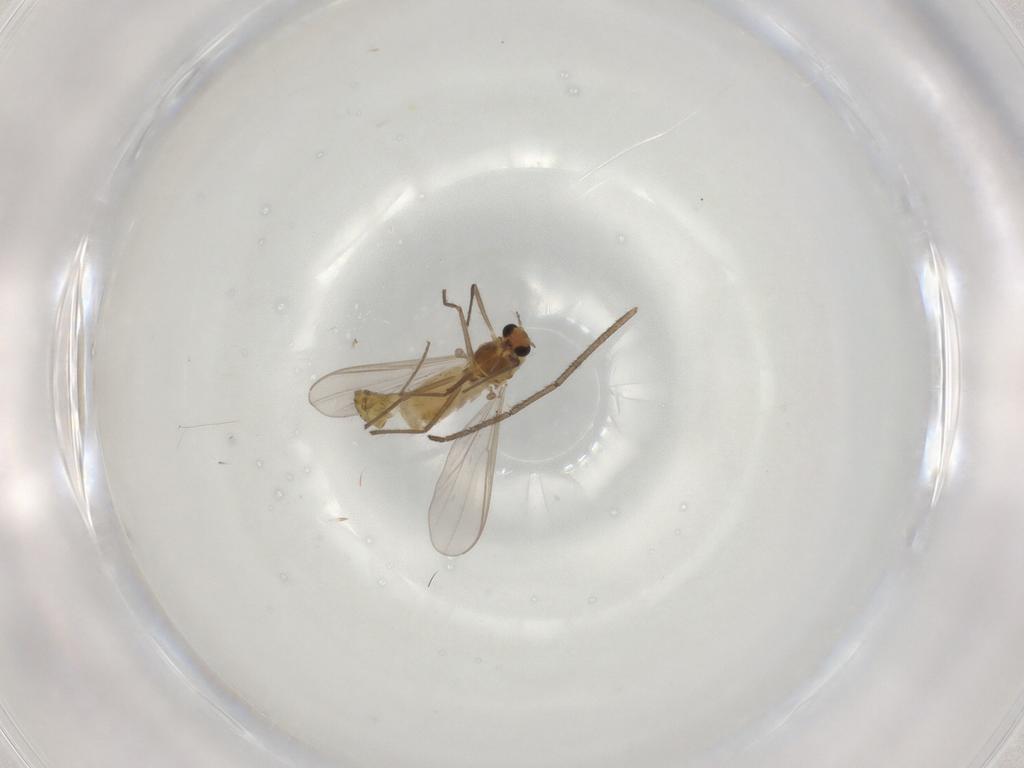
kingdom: Animalia
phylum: Arthropoda
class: Insecta
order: Diptera
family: Chironomidae
